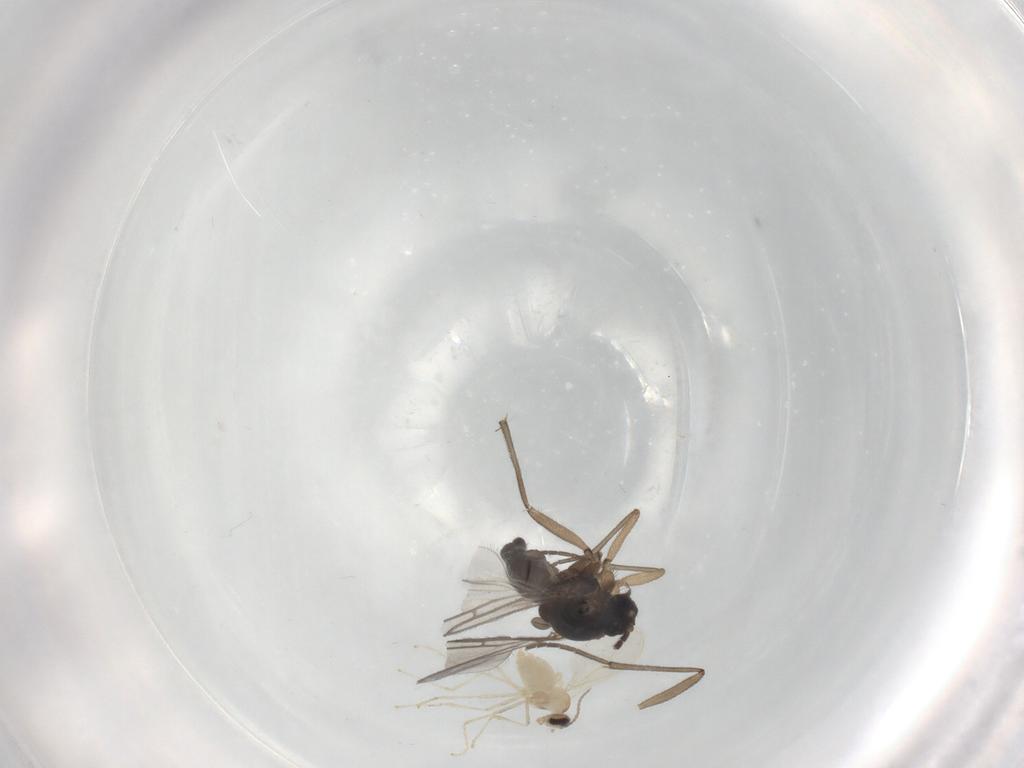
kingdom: Animalia
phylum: Arthropoda
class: Insecta
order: Diptera
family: Sciaridae
